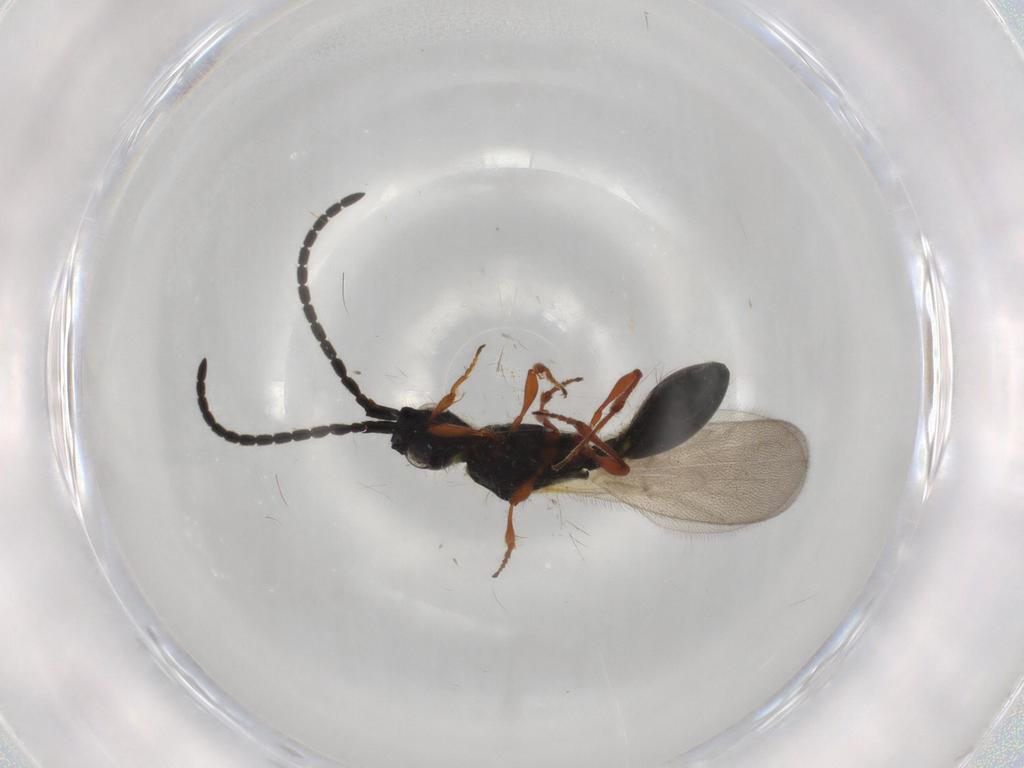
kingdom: Animalia
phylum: Arthropoda
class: Insecta
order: Hymenoptera
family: Diapriidae
